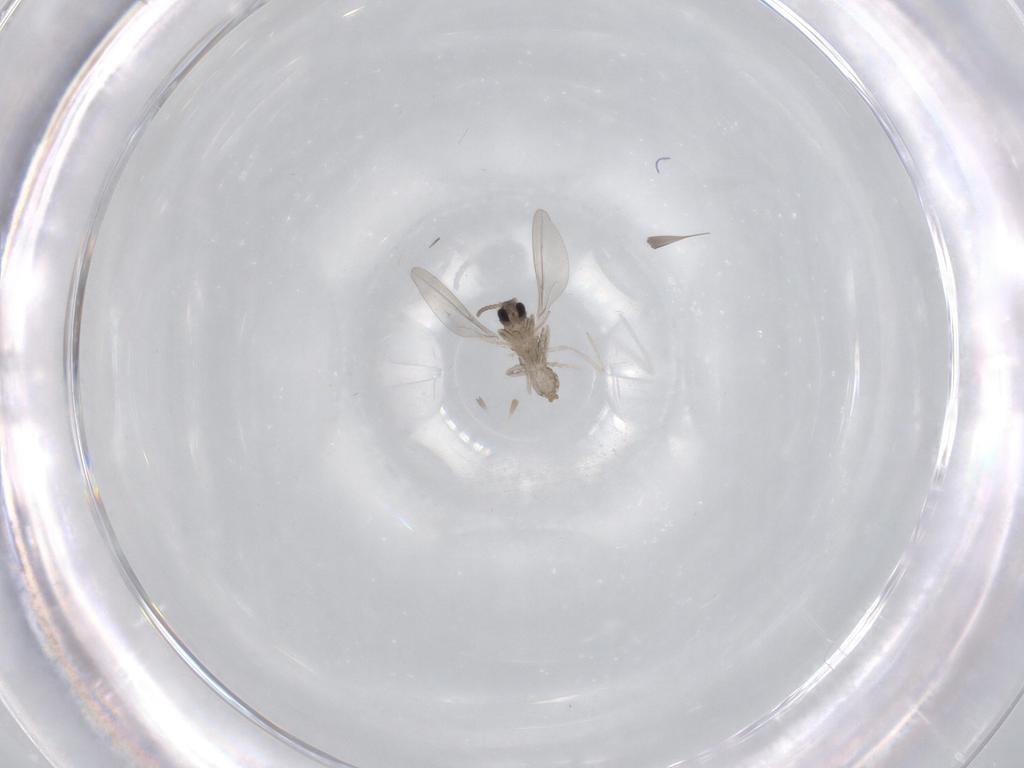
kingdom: Animalia
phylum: Arthropoda
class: Insecta
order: Diptera
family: Cecidomyiidae
